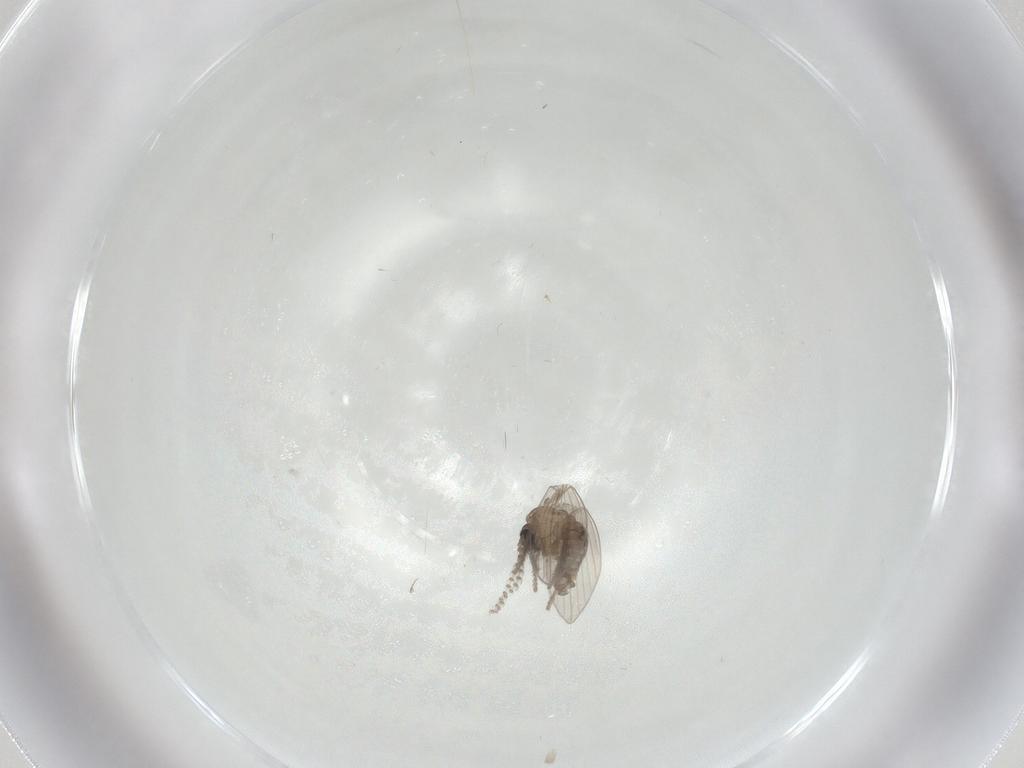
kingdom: Animalia
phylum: Arthropoda
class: Insecta
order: Diptera
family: Psychodidae
